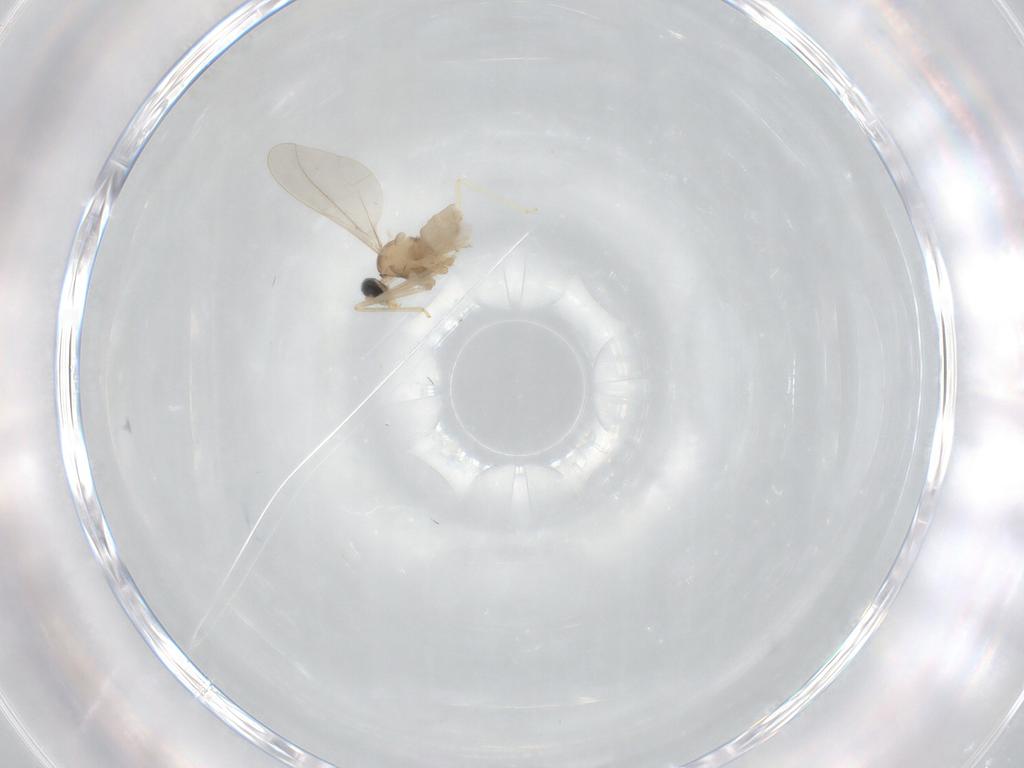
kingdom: Animalia
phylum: Arthropoda
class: Insecta
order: Diptera
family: Cecidomyiidae
